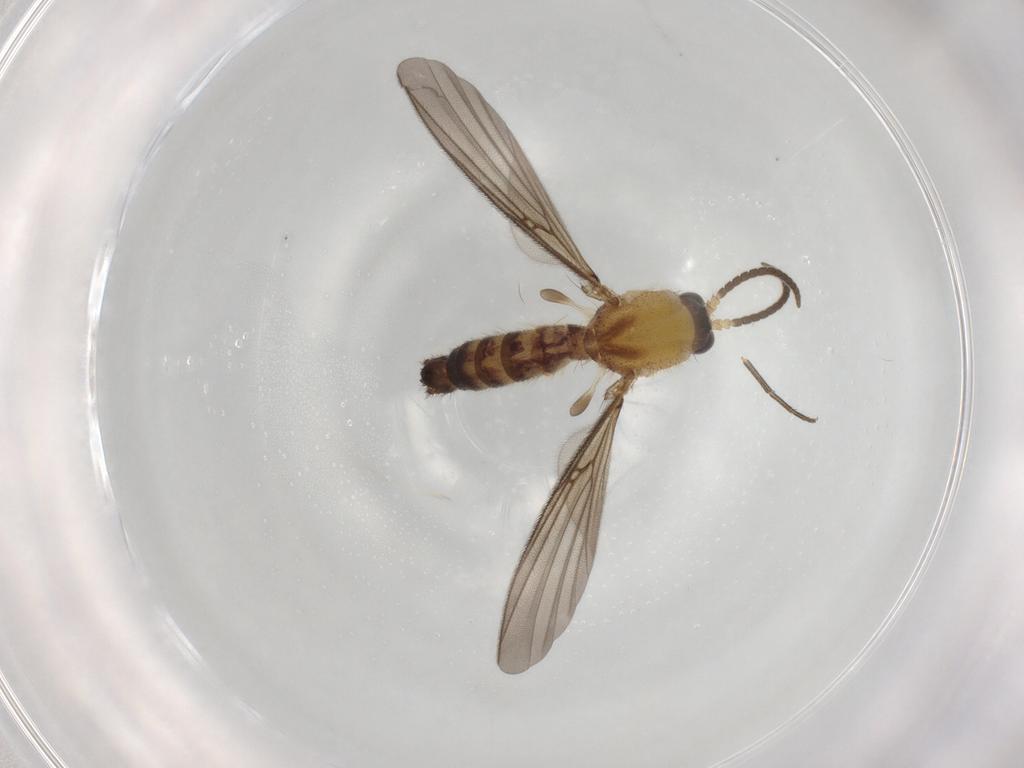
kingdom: Animalia
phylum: Arthropoda
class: Insecta
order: Diptera
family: Mycetophilidae
